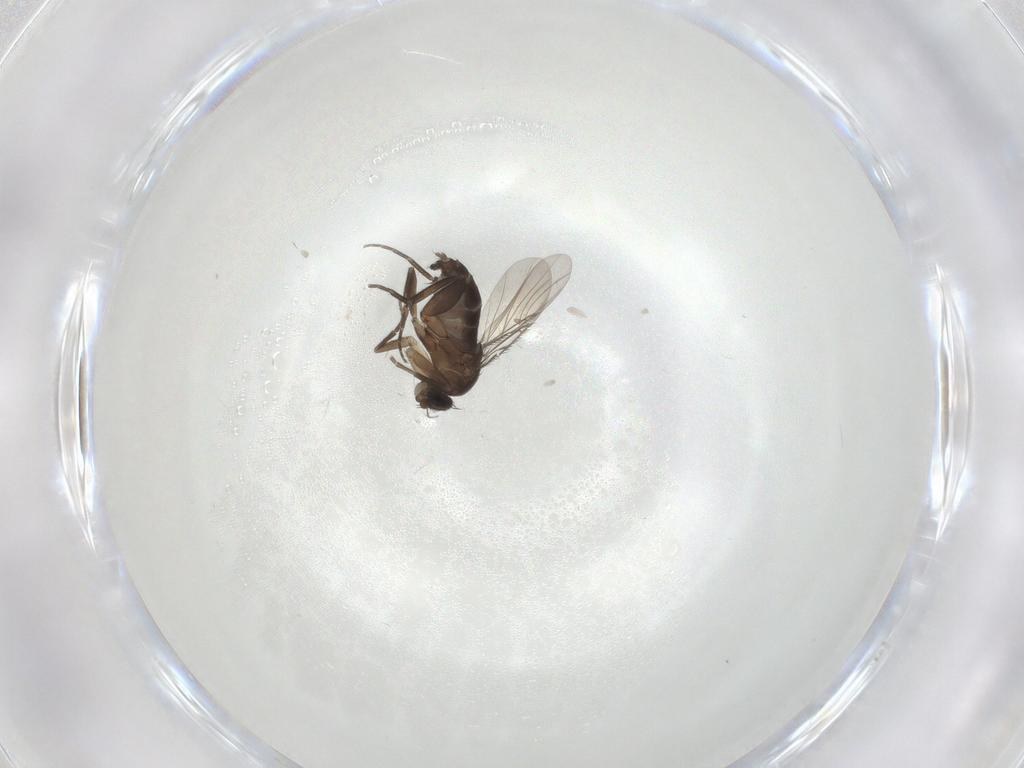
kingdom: Animalia
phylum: Arthropoda
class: Insecta
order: Diptera
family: Phoridae
